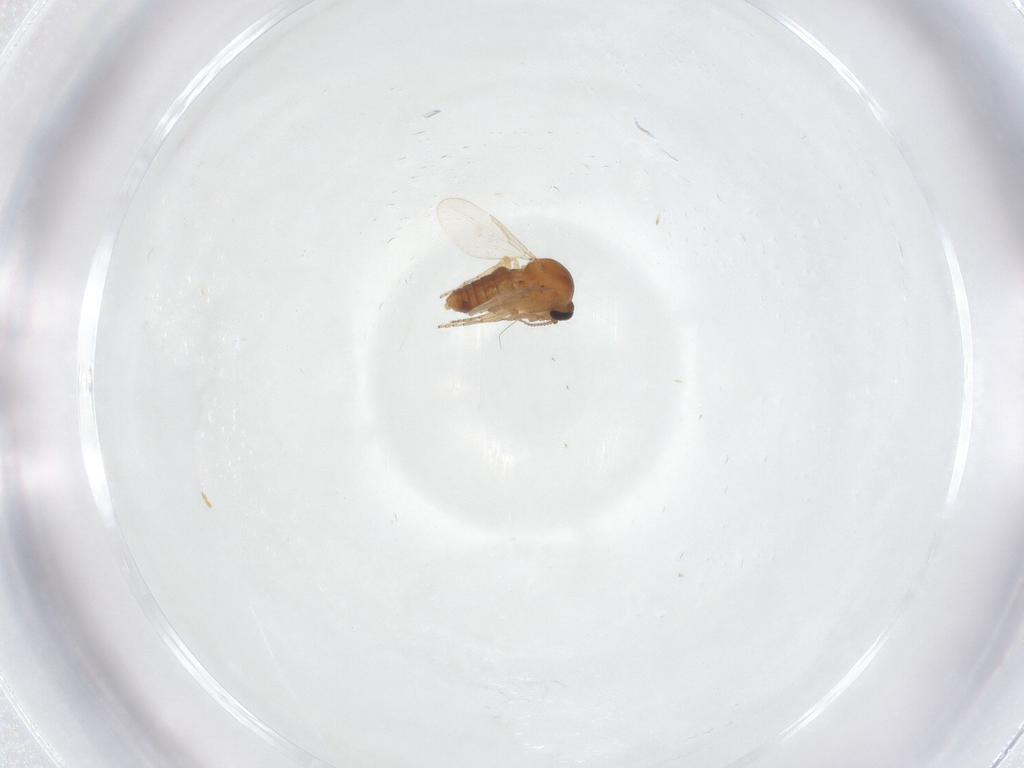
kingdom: Animalia
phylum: Arthropoda
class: Insecta
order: Diptera
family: Ceratopogonidae
